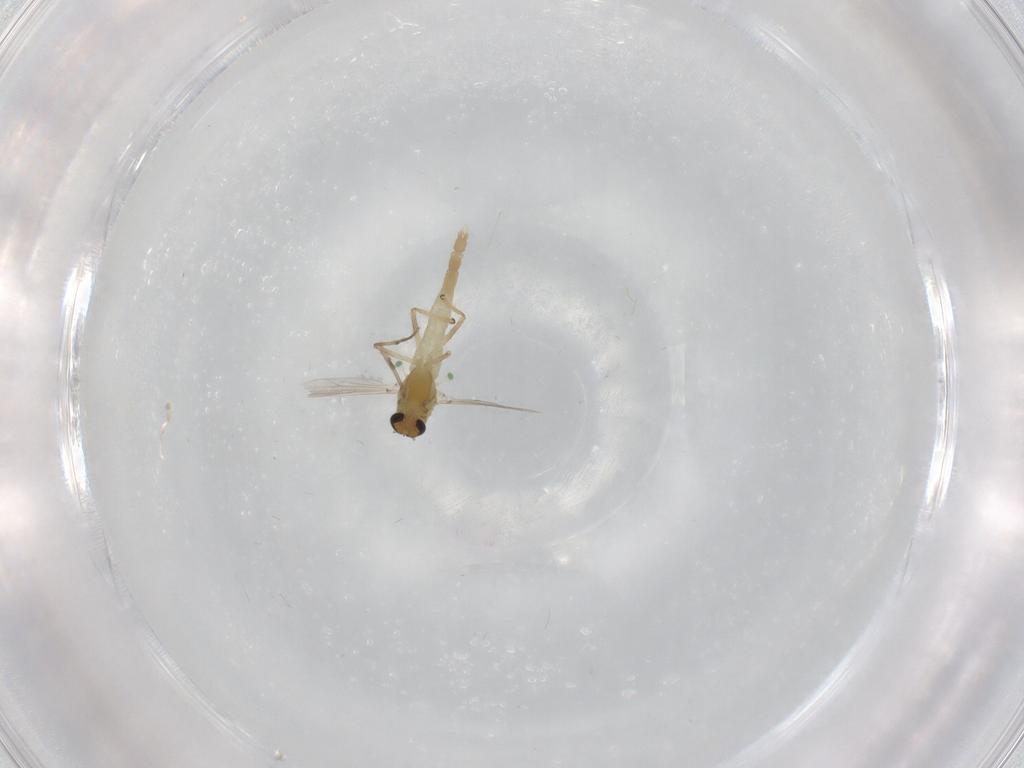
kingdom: Animalia
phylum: Arthropoda
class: Insecta
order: Diptera
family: Chironomidae
